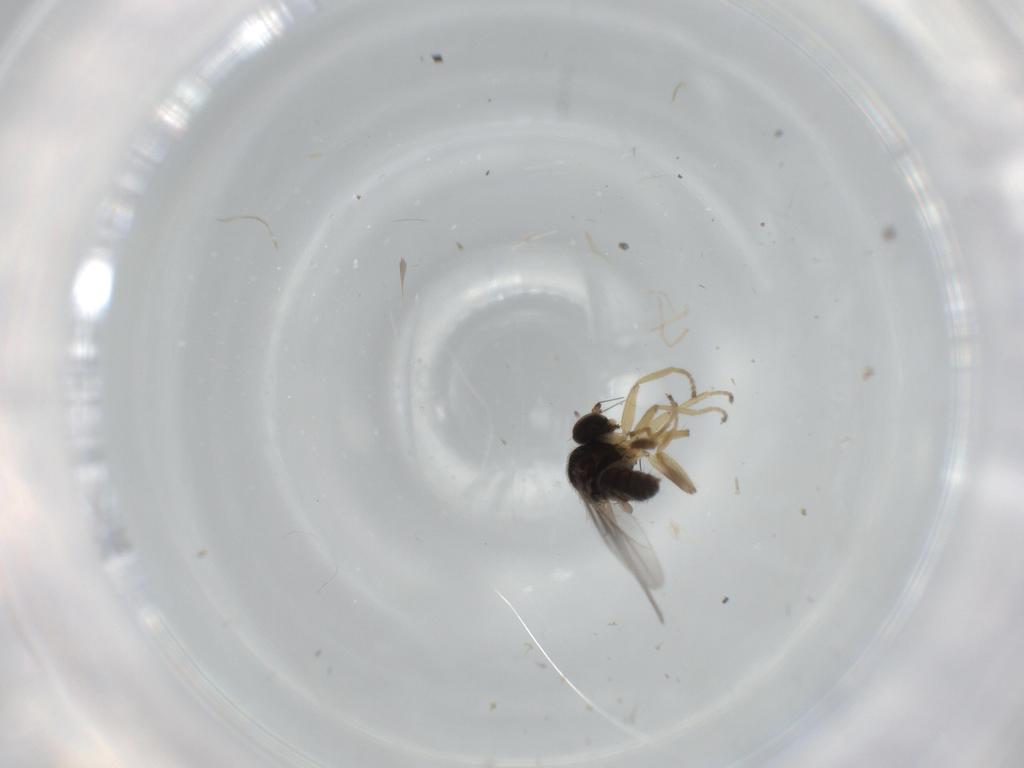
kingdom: Animalia
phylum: Arthropoda
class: Insecta
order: Diptera
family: Hybotidae
